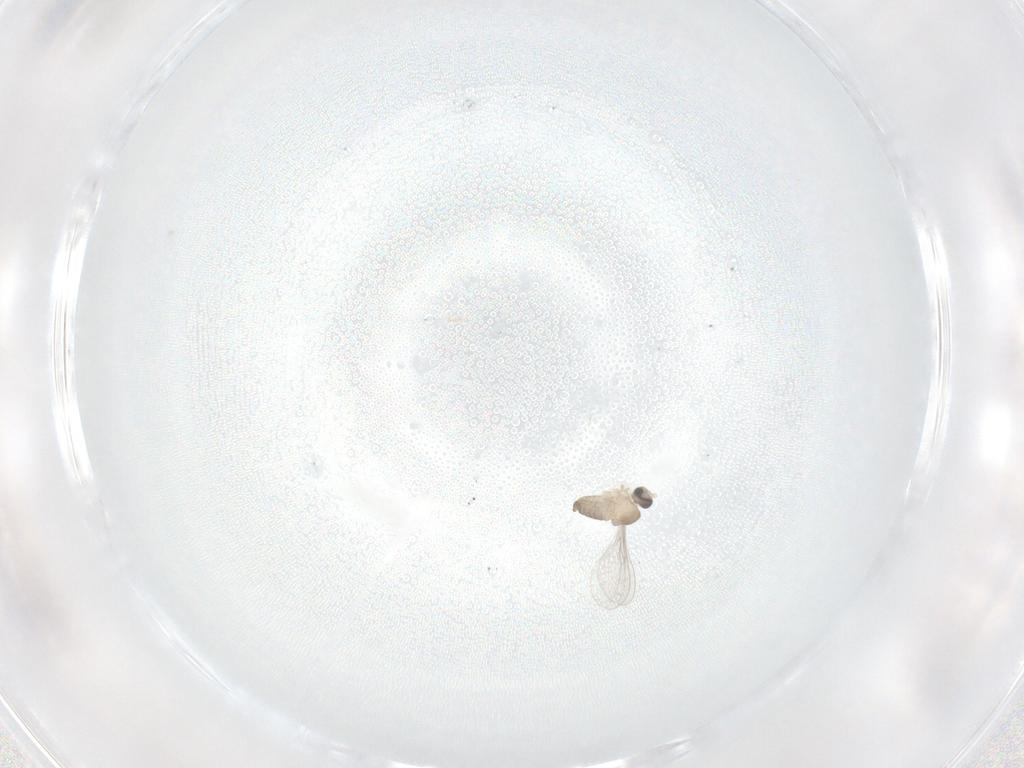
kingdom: Animalia
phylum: Arthropoda
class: Insecta
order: Diptera
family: Cecidomyiidae
